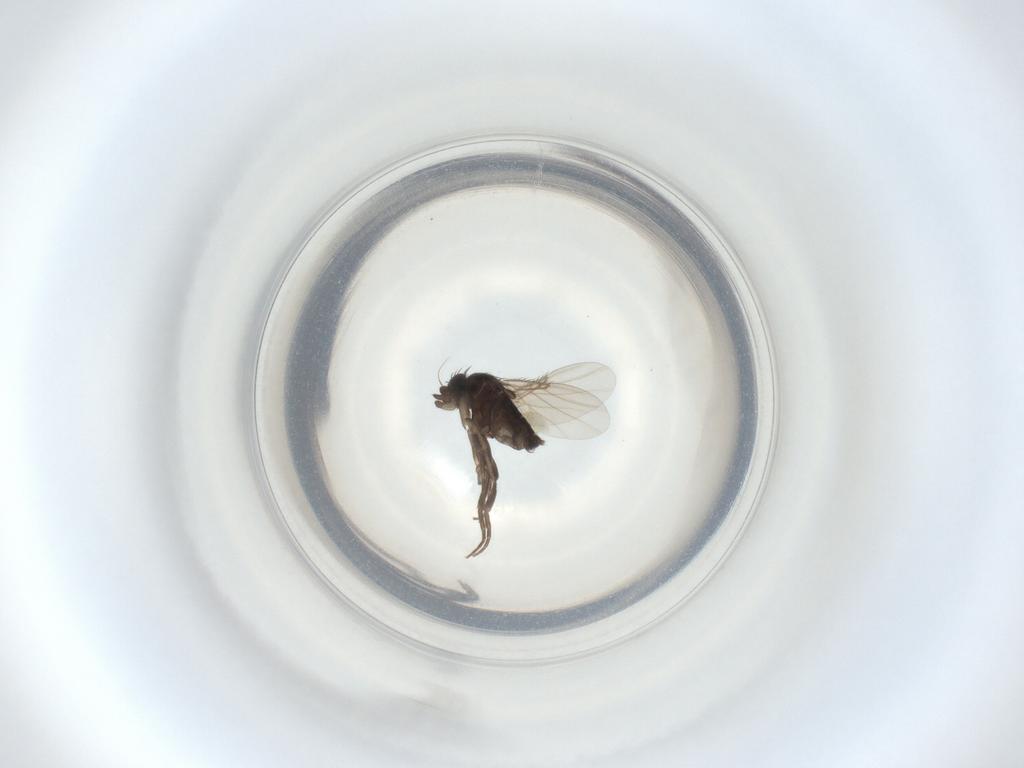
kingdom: Animalia
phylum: Arthropoda
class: Insecta
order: Diptera
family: Phoridae
